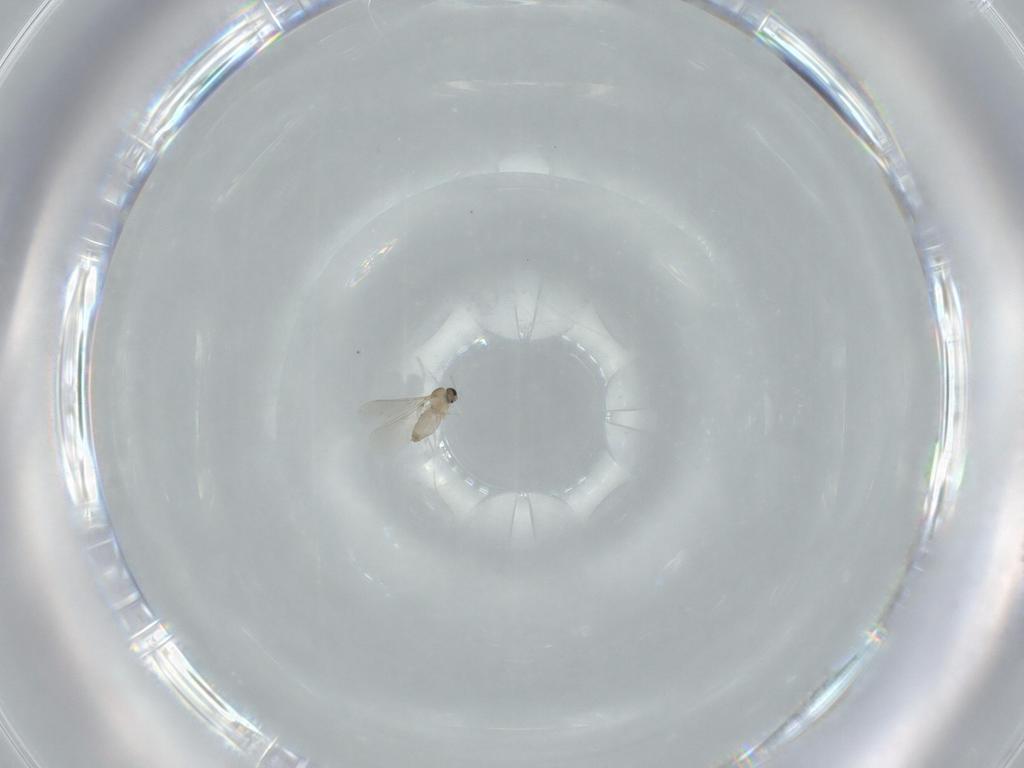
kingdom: Animalia
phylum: Arthropoda
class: Insecta
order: Diptera
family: Cecidomyiidae
